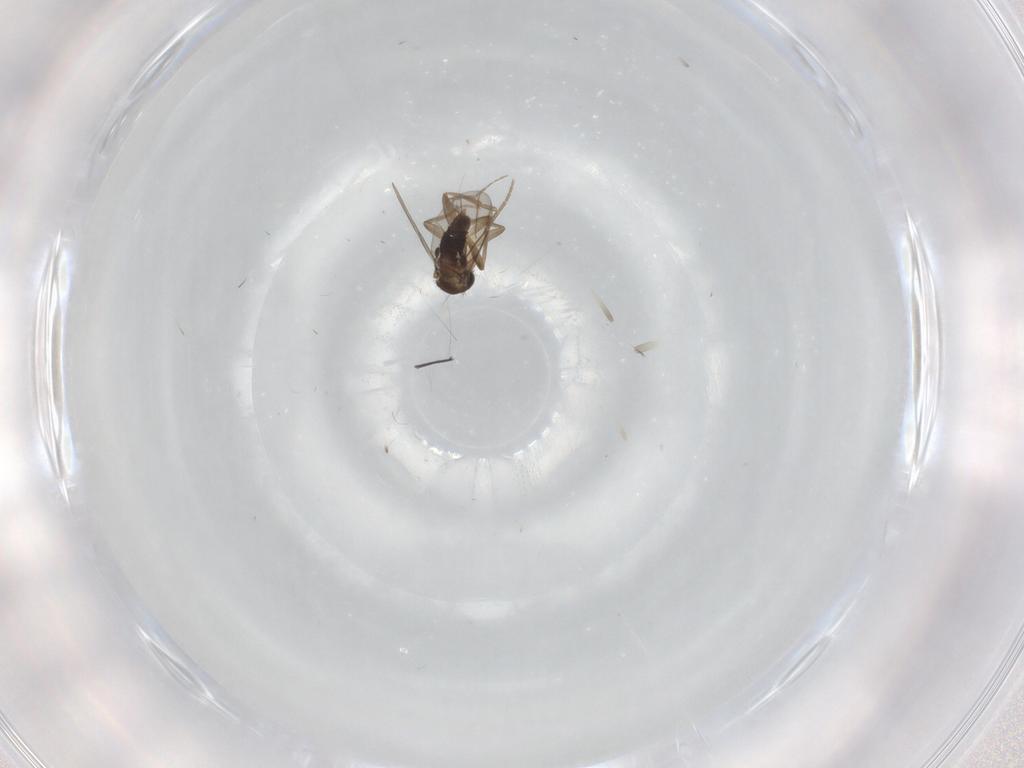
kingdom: Animalia
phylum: Arthropoda
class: Insecta
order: Diptera
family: Phoridae
